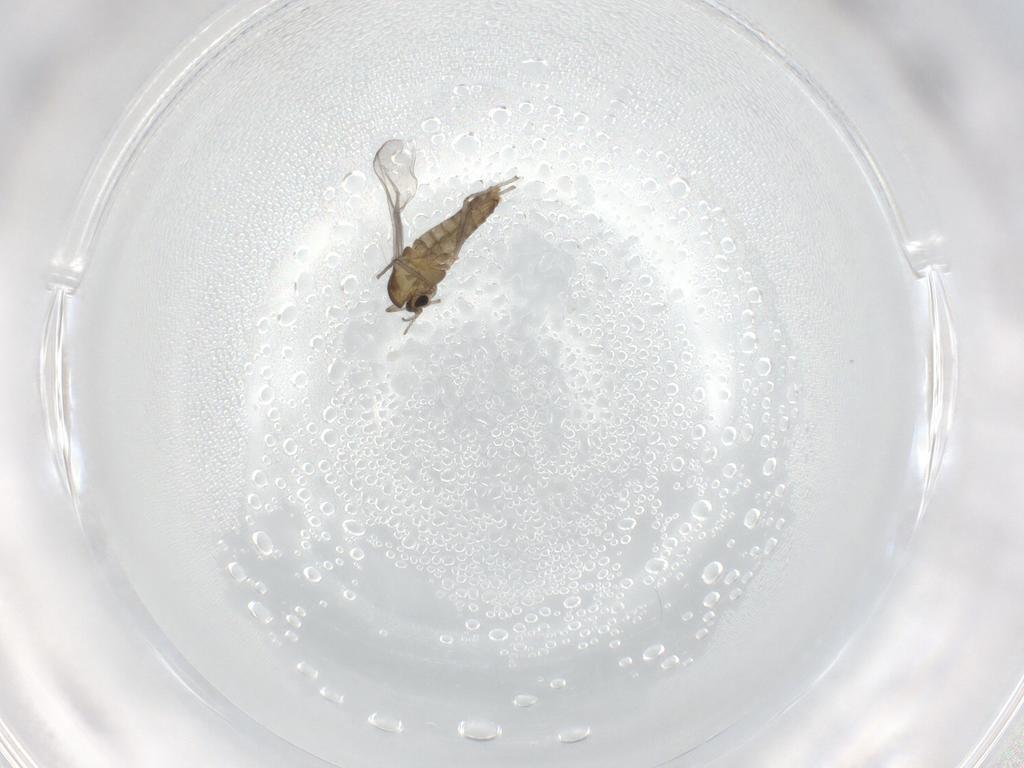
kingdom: Animalia
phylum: Arthropoda
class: Insecta
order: Diptera
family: Chironomidae
